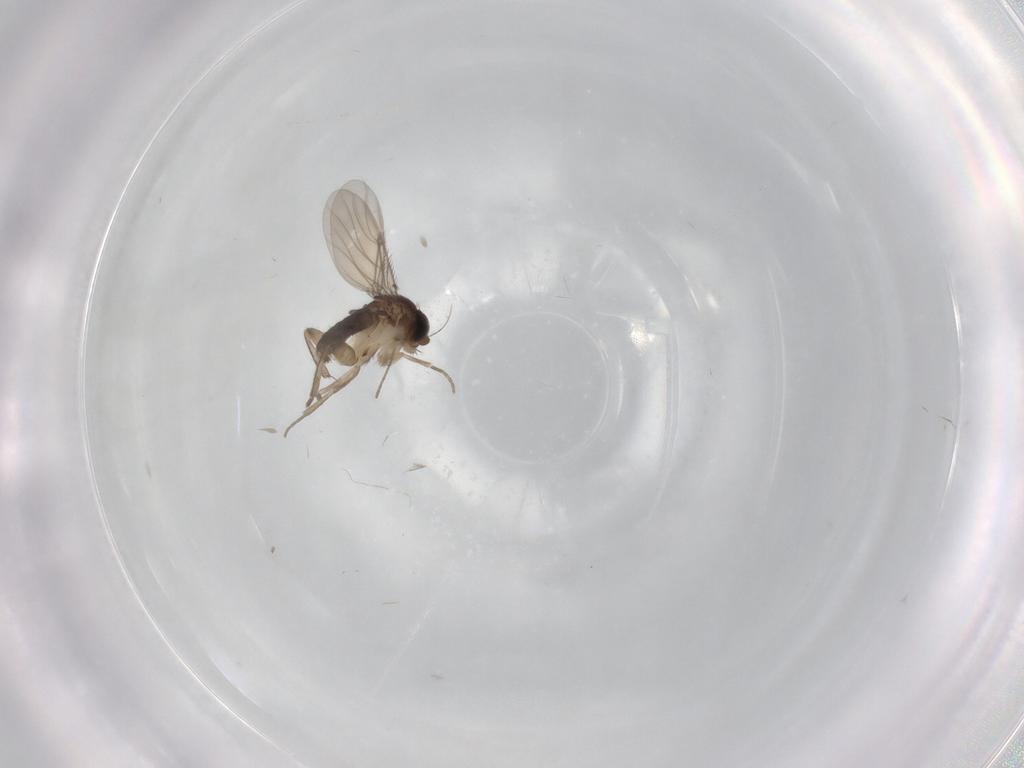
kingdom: Animalia
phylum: Arthropoda
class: Insecta
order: Diptera
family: Phoridae
